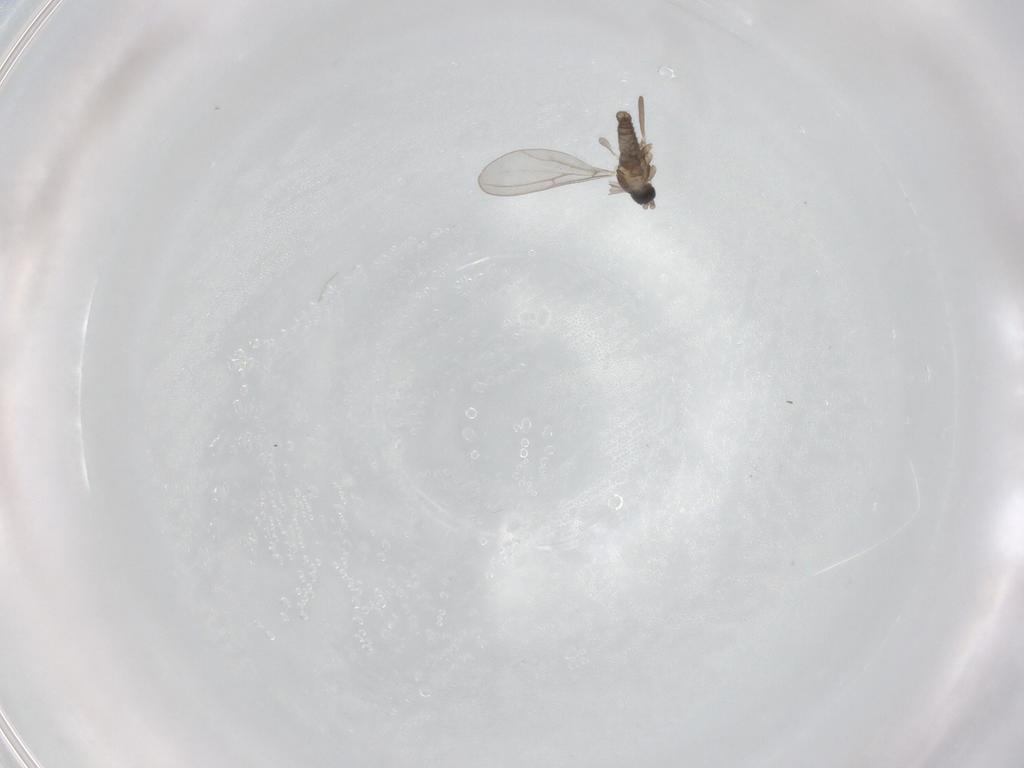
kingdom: Animalia
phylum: Arthropoda
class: Insecta
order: Diptera
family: Cecidomyiidae
